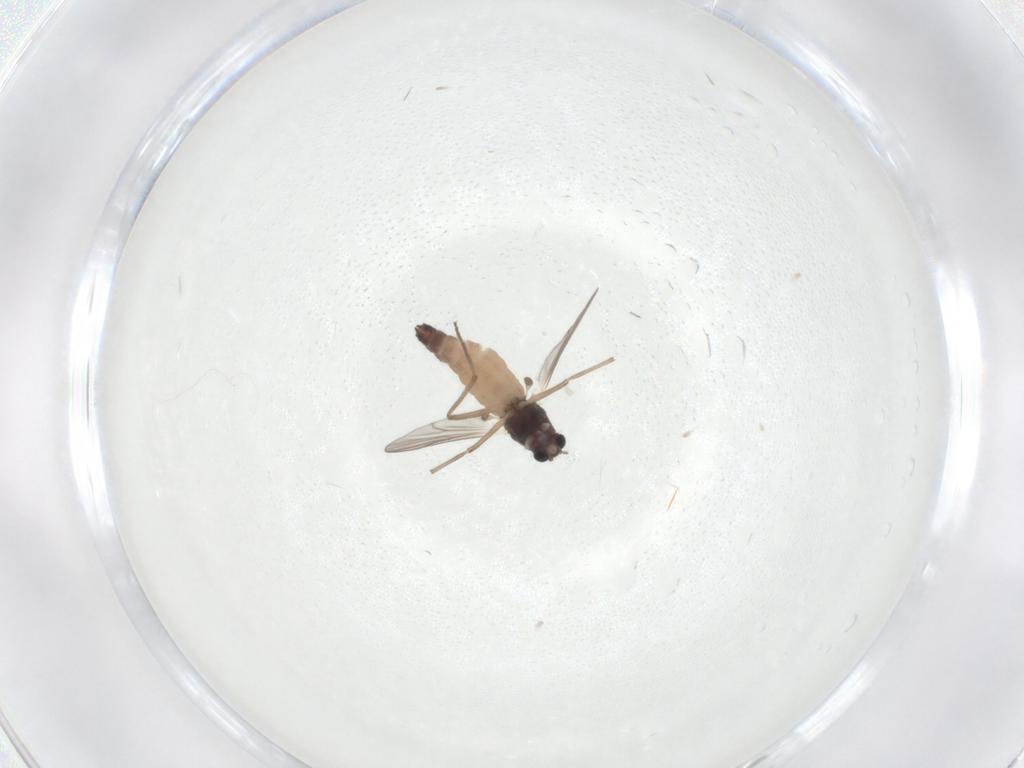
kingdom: Animalia
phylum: Arthropoda
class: Insecta
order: Diptera
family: Chironomidae
